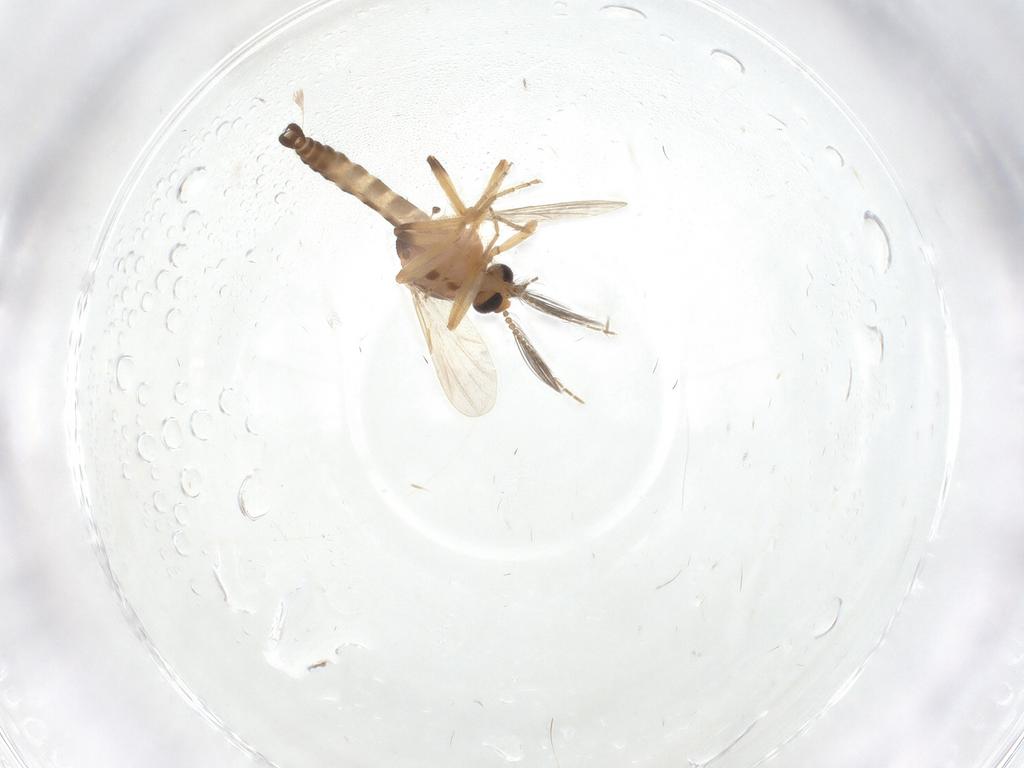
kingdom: Animalia
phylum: Arthropoda
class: Insecta
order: Diptera
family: Ceratopogonidae
